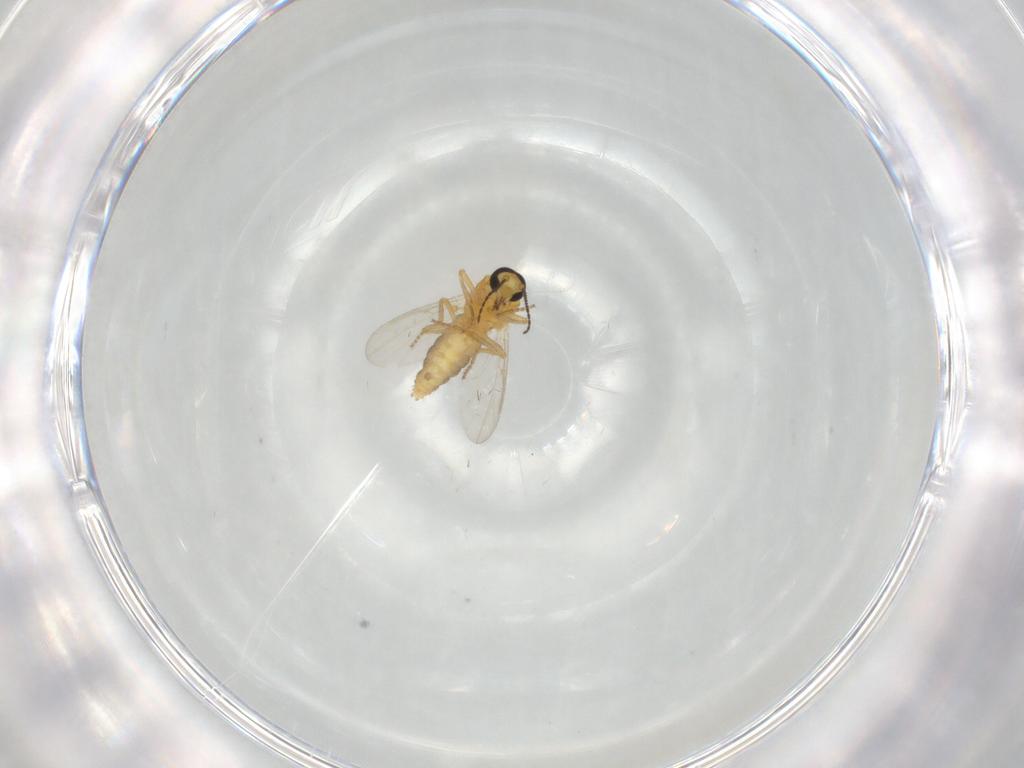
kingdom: Animalia
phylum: Arthropoda
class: Insecta
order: Diptera
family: Ceratopogonidae
